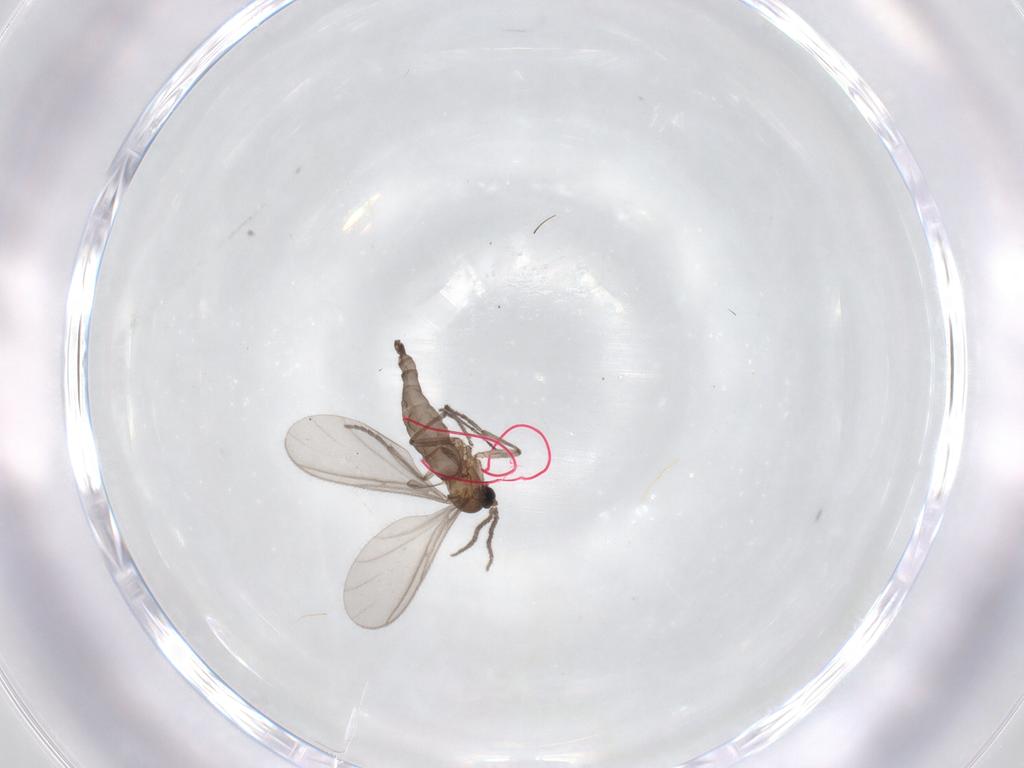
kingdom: Animalia
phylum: Arthropoda
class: Insecta
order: Diptera
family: Sciaridae
